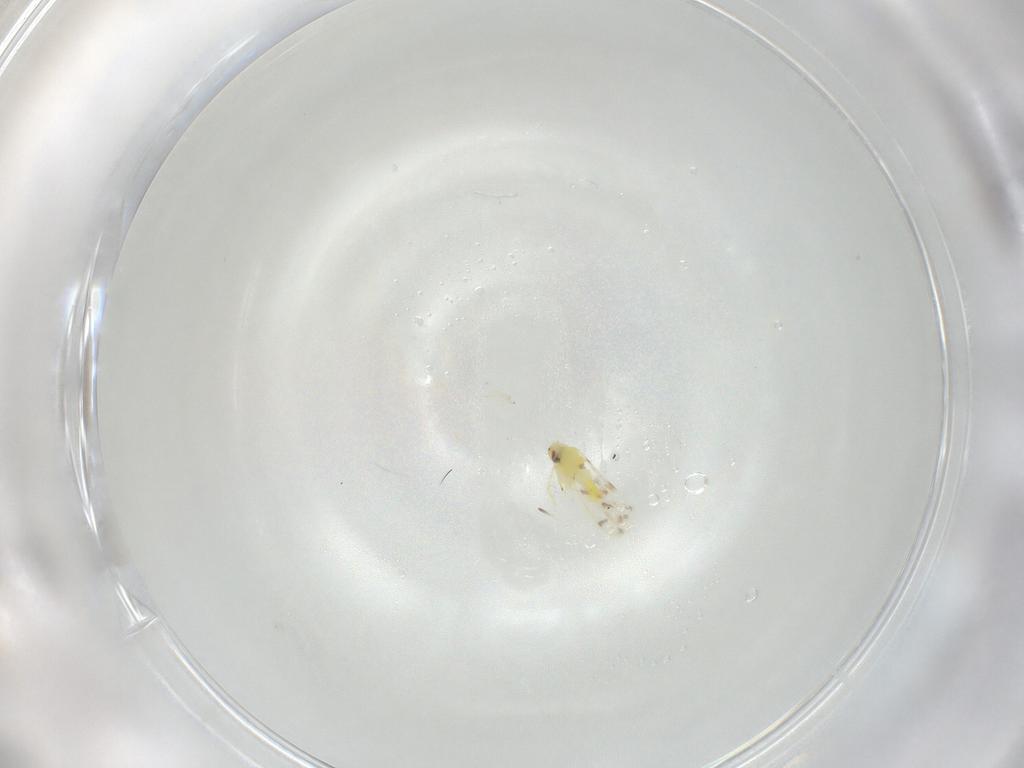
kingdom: Animalia
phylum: Arthropoda
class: Insecta
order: Hemiptera
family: Aleyrodidae
